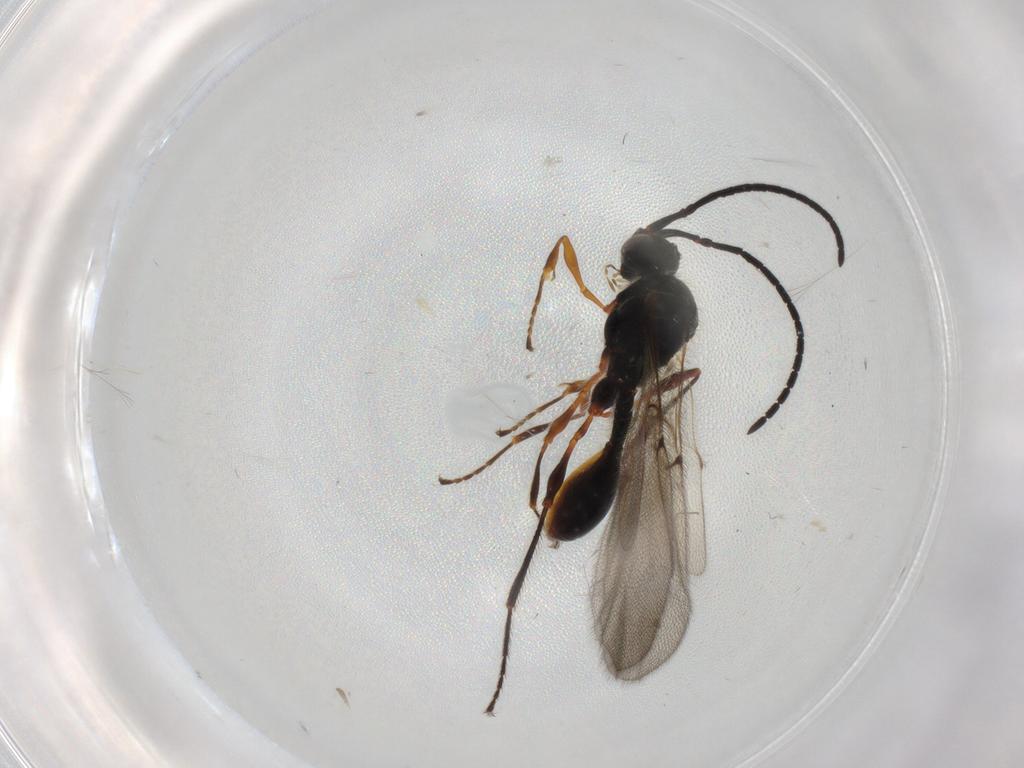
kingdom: Animalia
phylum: Arthropoda
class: Insecta
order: Hymenoptera
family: Diapriidae
